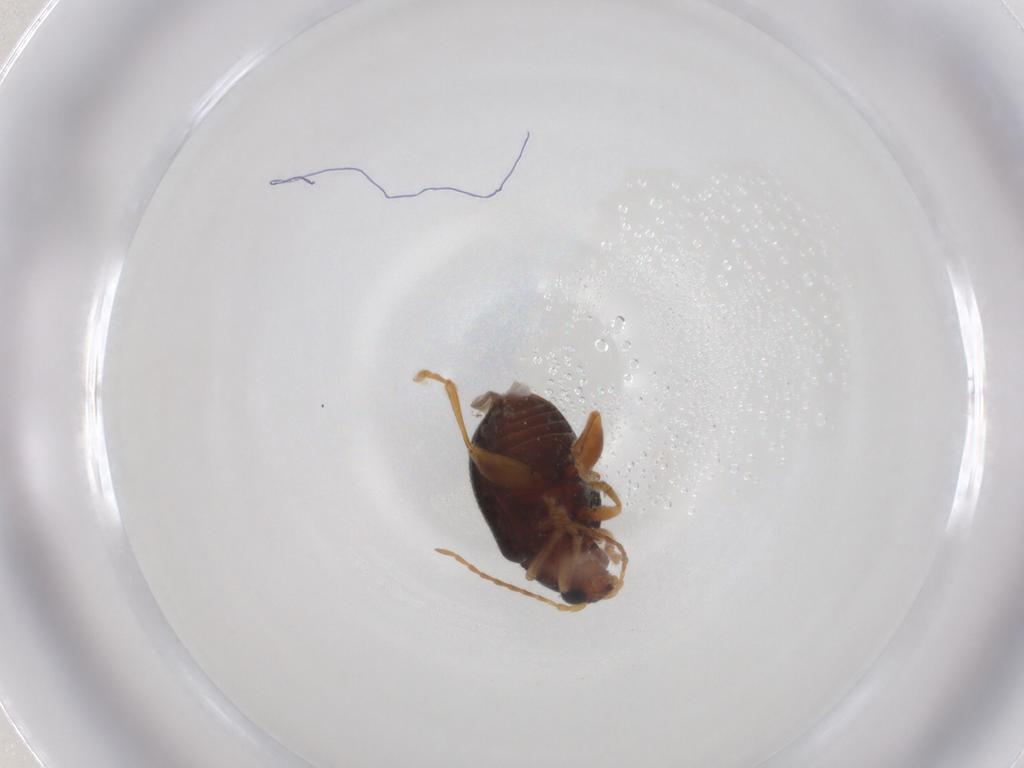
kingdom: Animalia
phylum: Arthropoda
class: Insecta
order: Coleoptera
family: Chrysomelidae
